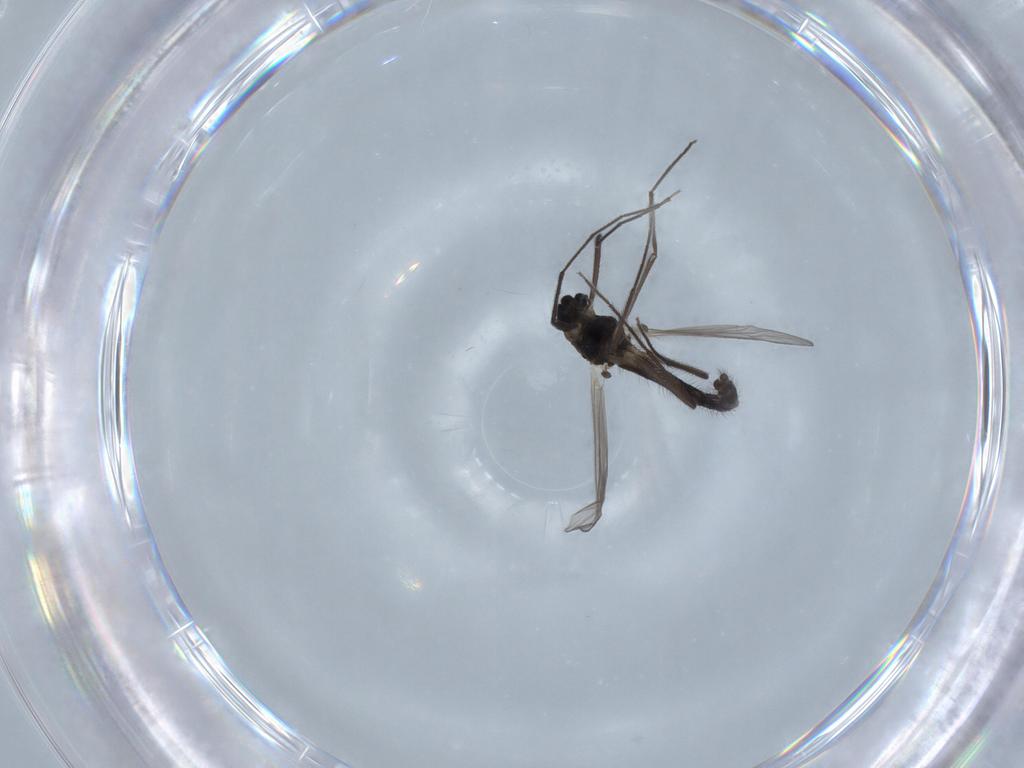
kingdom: Animalia
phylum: Arthropoda
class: Insecta
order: Diptera
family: Chironomidae
